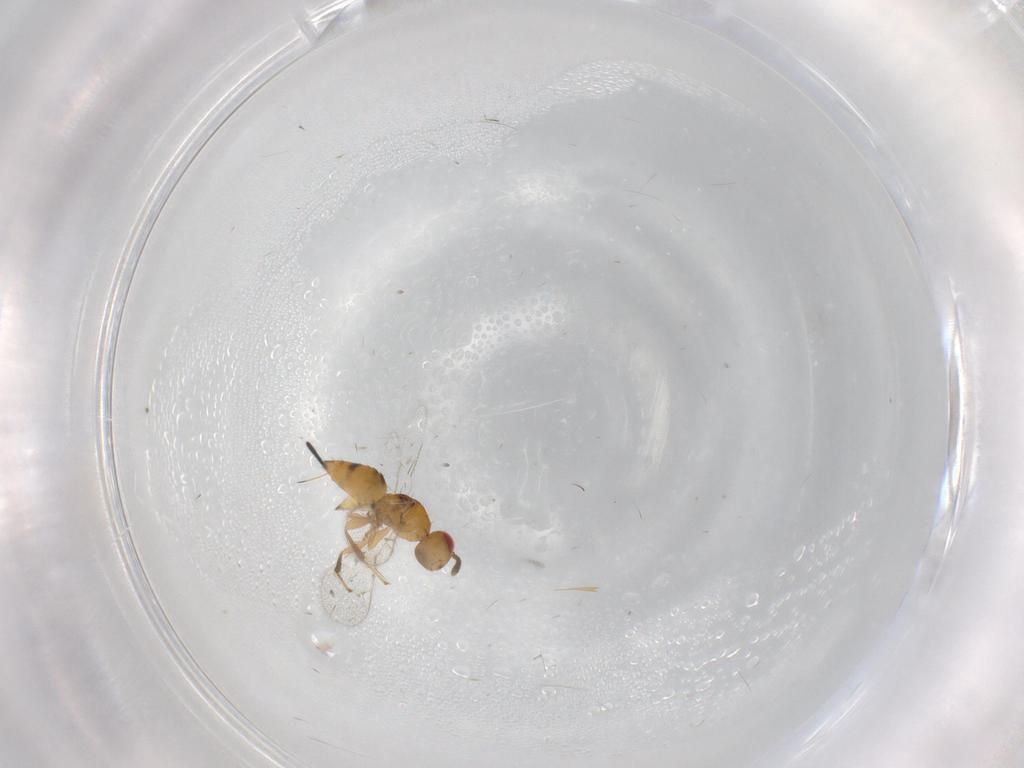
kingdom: Animalia
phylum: Arthropoda
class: Insecta
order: Hymenoptera
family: Torymidae
